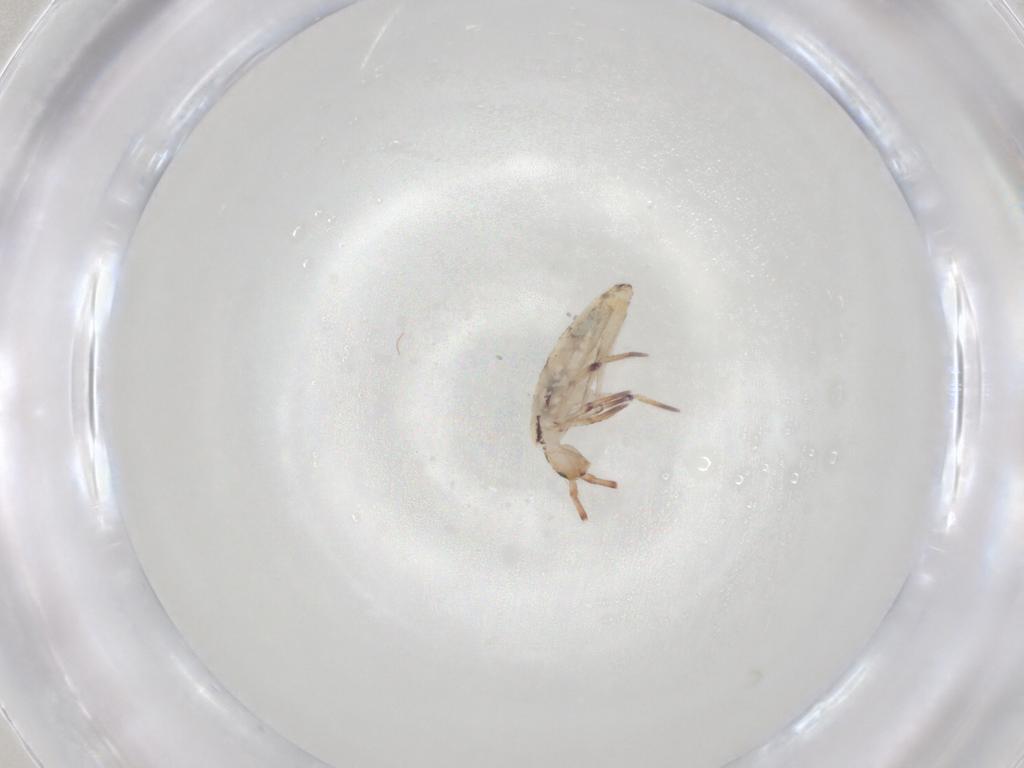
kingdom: Animalia
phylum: Arthropoda
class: Collembola
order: Entomobryomorpha
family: Entomobryidae
